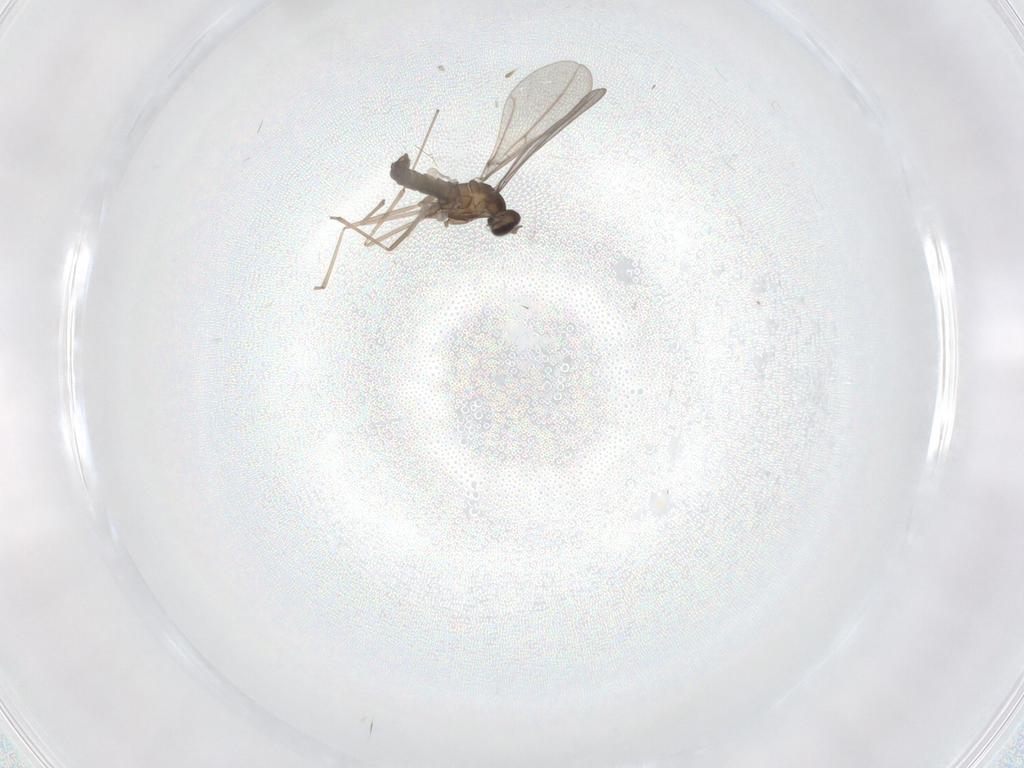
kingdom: Animalia
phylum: Arthropoda
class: Insecta
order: Diptera
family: Cecidomyiidae
